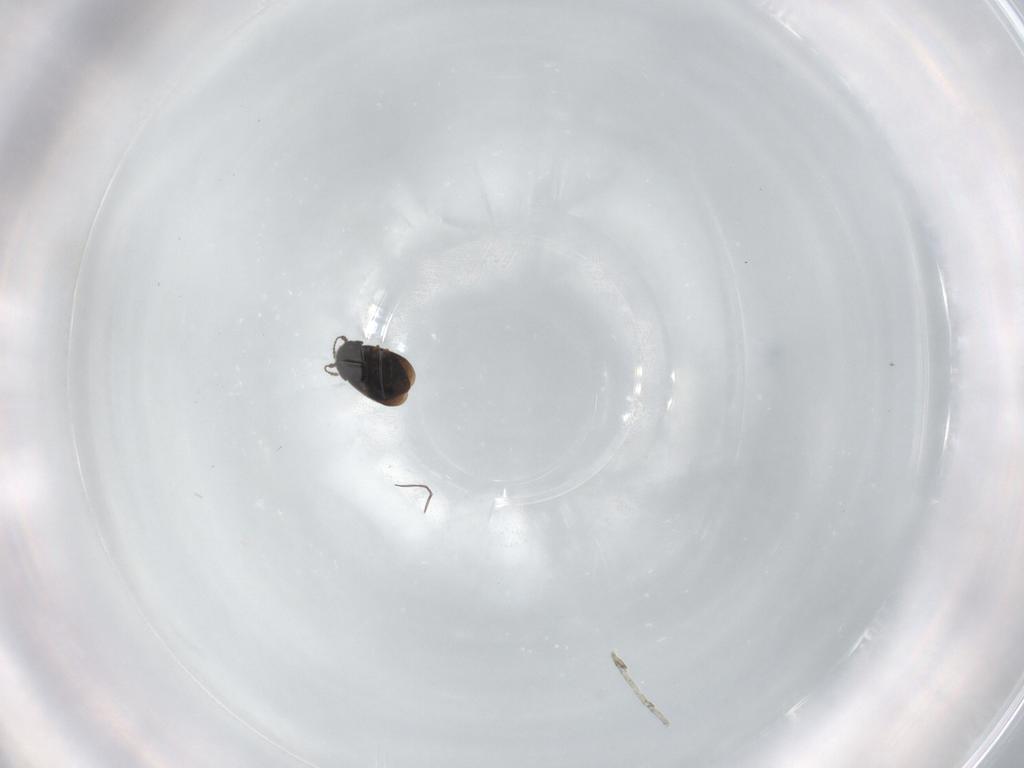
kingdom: Animalia
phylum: Arthropoda
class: Insecta
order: Coleoptera
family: Ptiliidae
